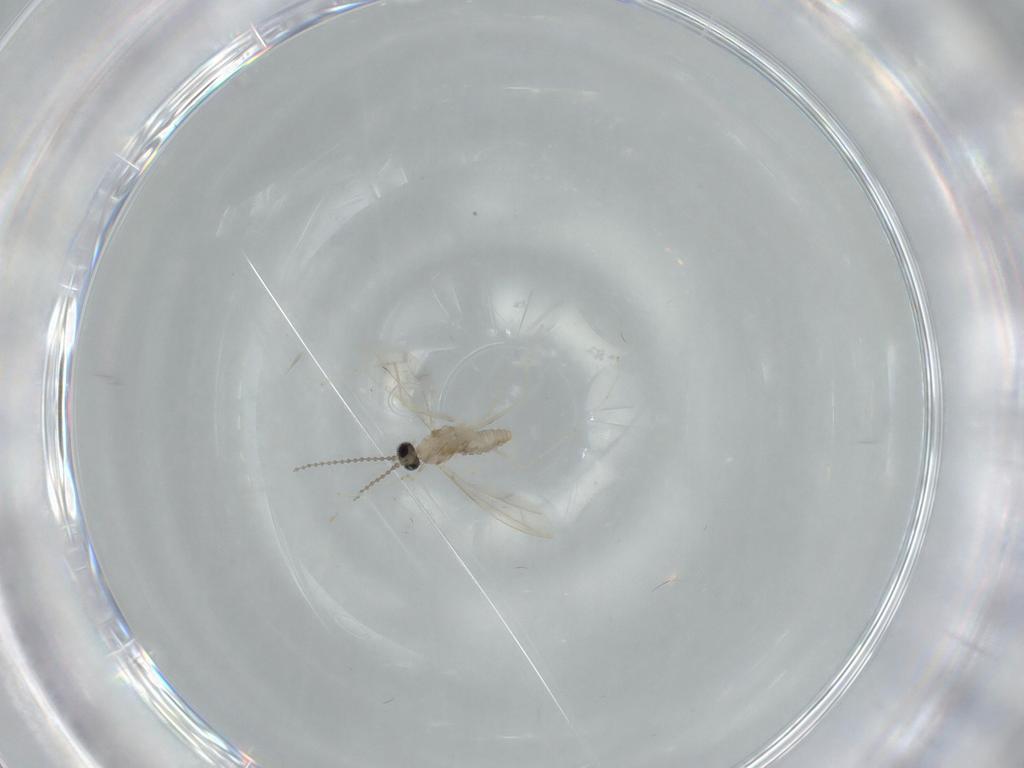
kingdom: Animalia
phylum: Arthropoda
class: Insecta
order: Diptera
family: Cecidomyiidae
